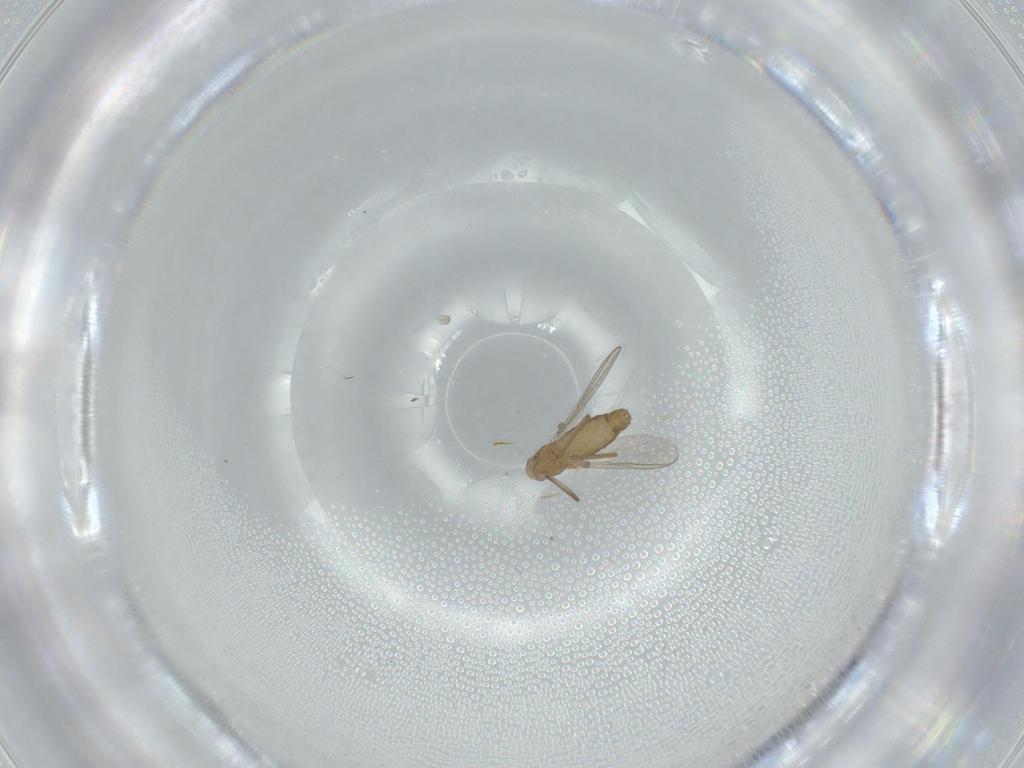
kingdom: Animalia
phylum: Arthropoda
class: Insecta
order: Diptera
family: Chironomidae
